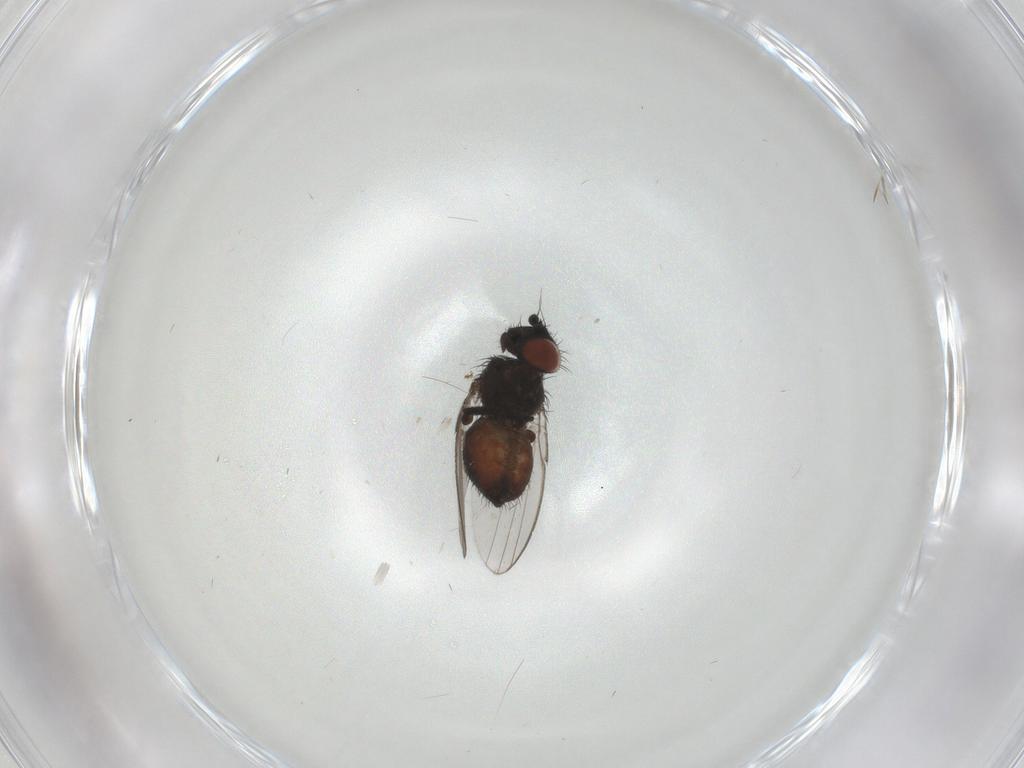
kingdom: Animalia
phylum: Arthropoda
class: Insecta
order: Diptera
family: Milichiidae
